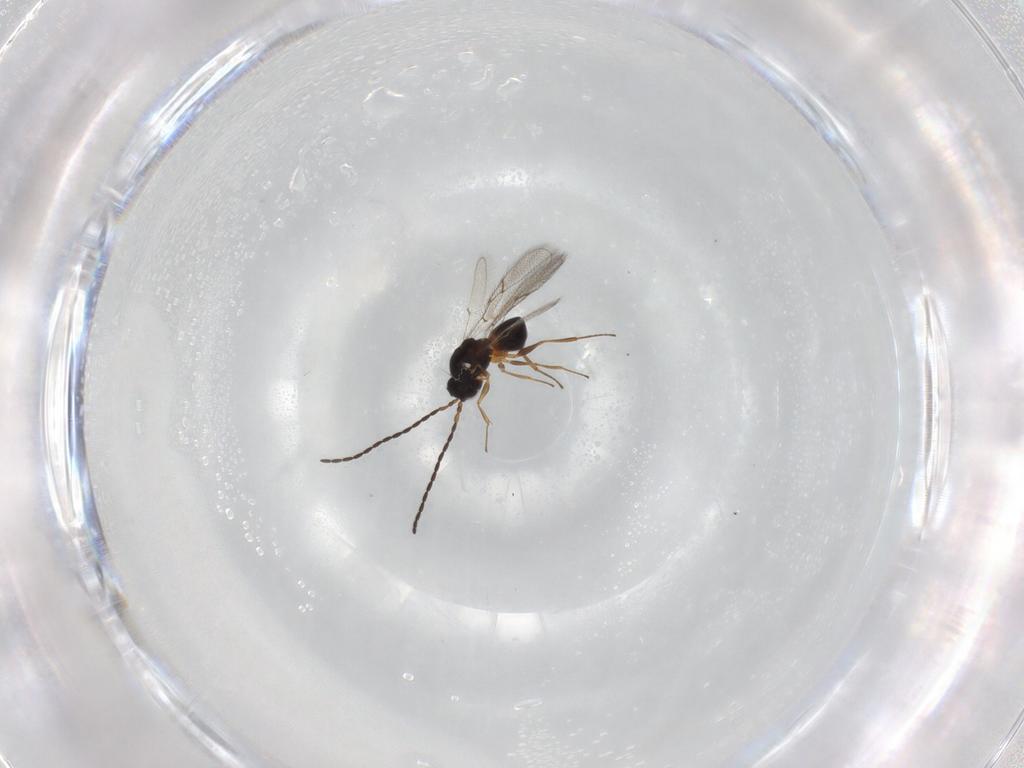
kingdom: Animalia
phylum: Arthropoda
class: Insecta
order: Hymenoptera
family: Figitidae
